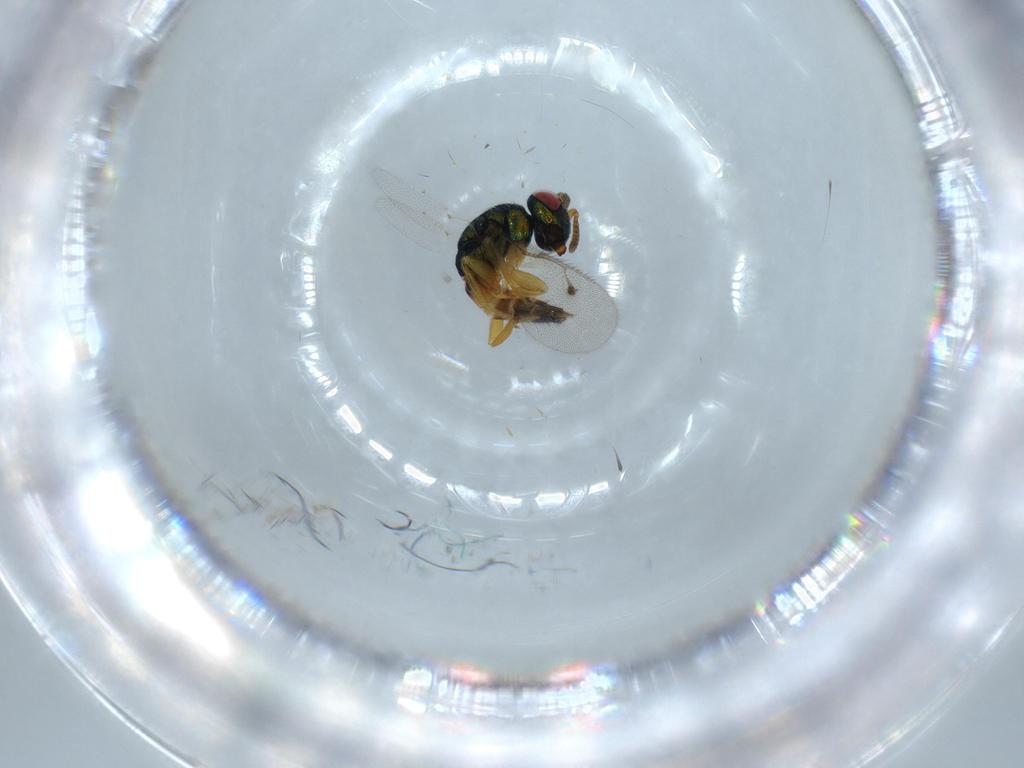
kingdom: Animalia
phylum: Arthropoda
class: Insecta
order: Hymenoptera
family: Pteromalidae
